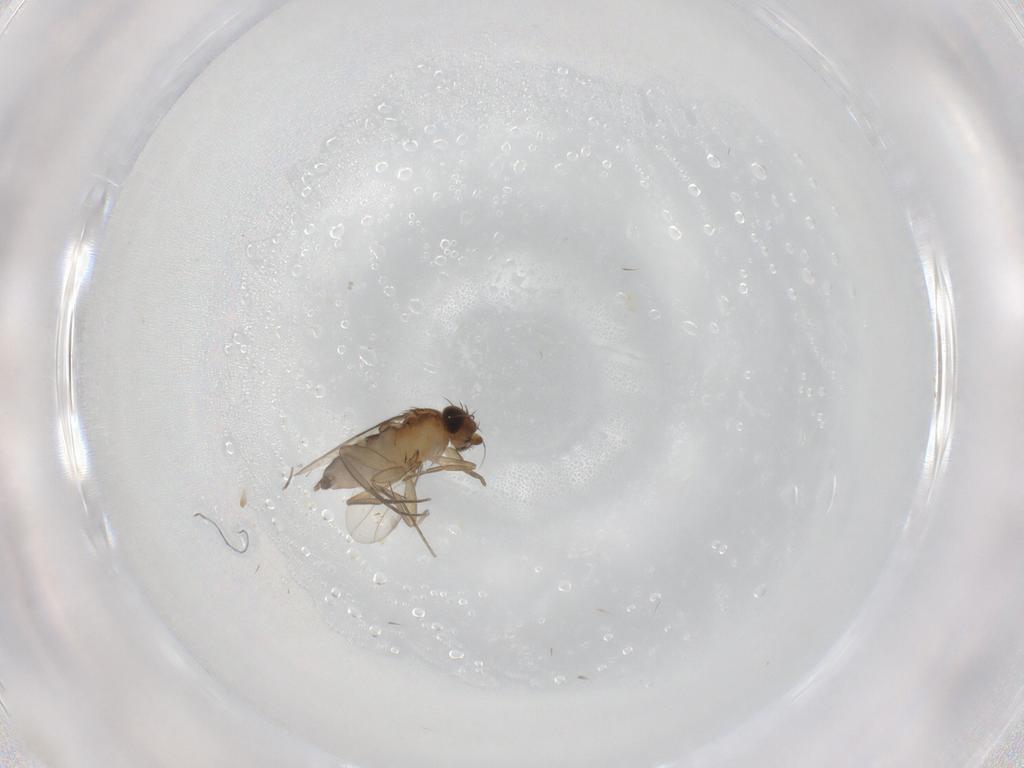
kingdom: Animalia
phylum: Arthropoda
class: Insecta
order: Diptera
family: Phoridae
